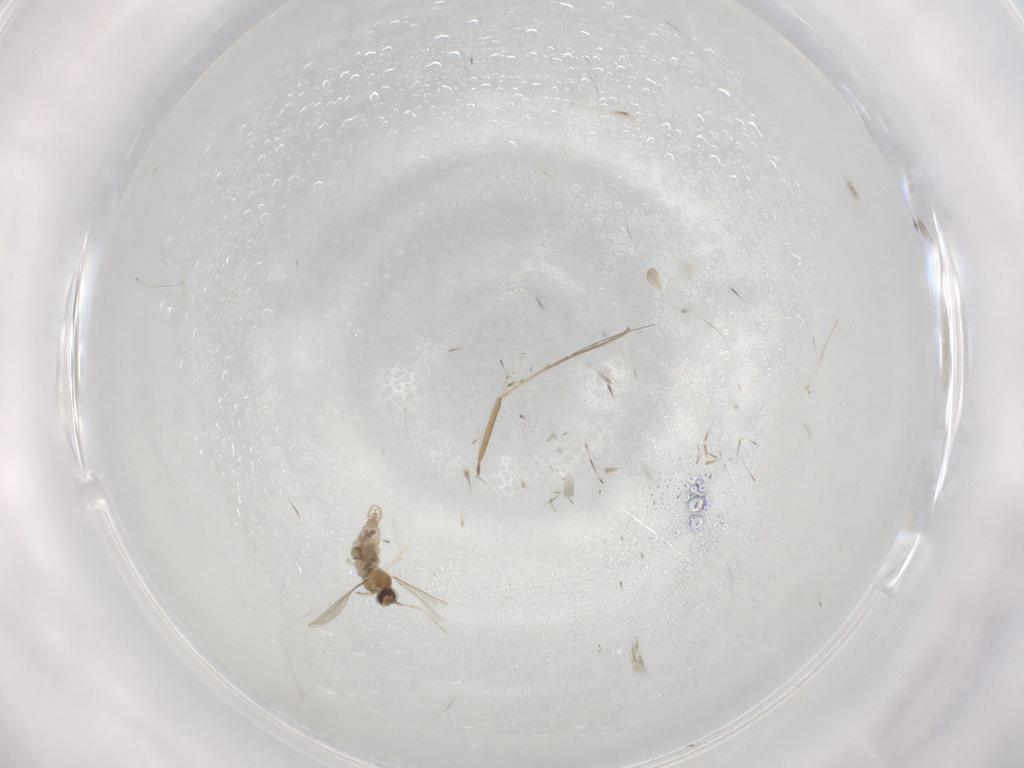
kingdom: Animalia
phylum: Arthropoda
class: Insecta
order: Diptera
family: Cecidomyiidae
